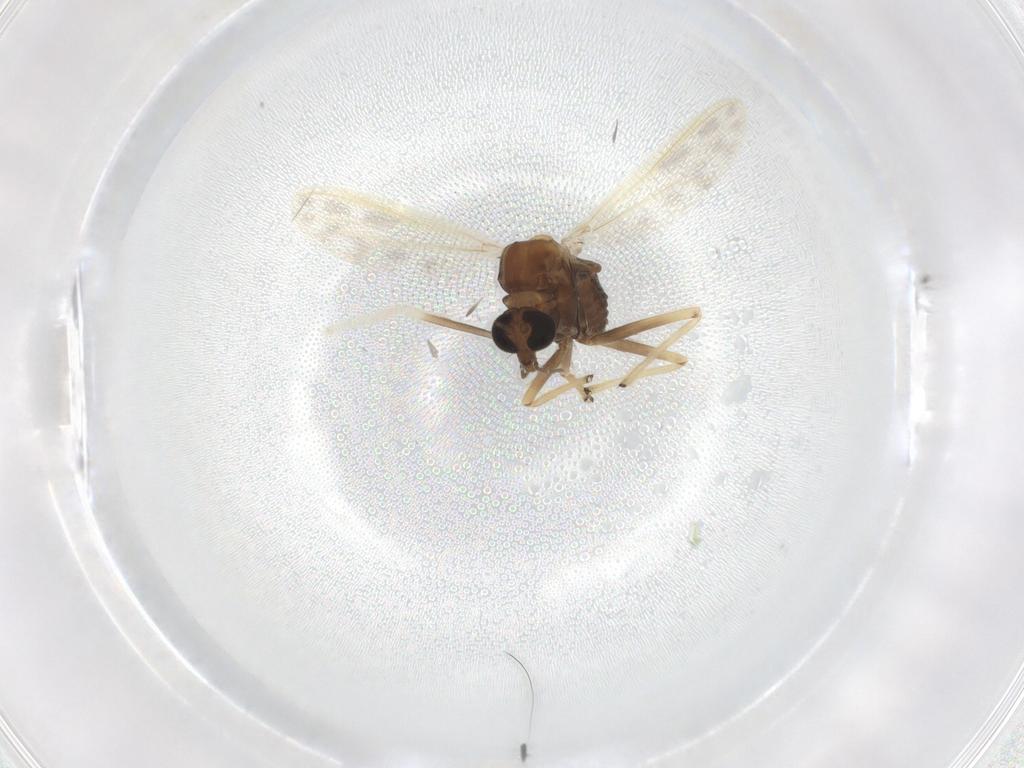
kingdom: Animalia
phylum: Arthropoda
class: Insecta
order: Diptera
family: Chironomidae
